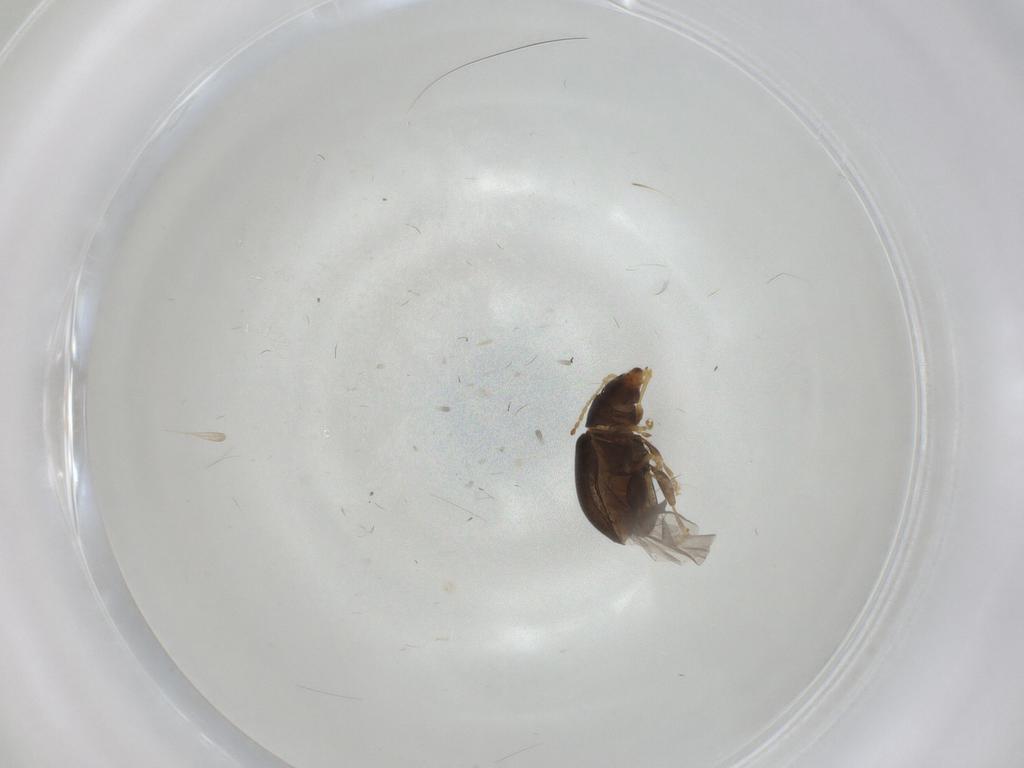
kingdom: Animalia
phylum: Arthropoda
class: Insecta
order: Coleoptera
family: Chrysomelidae
